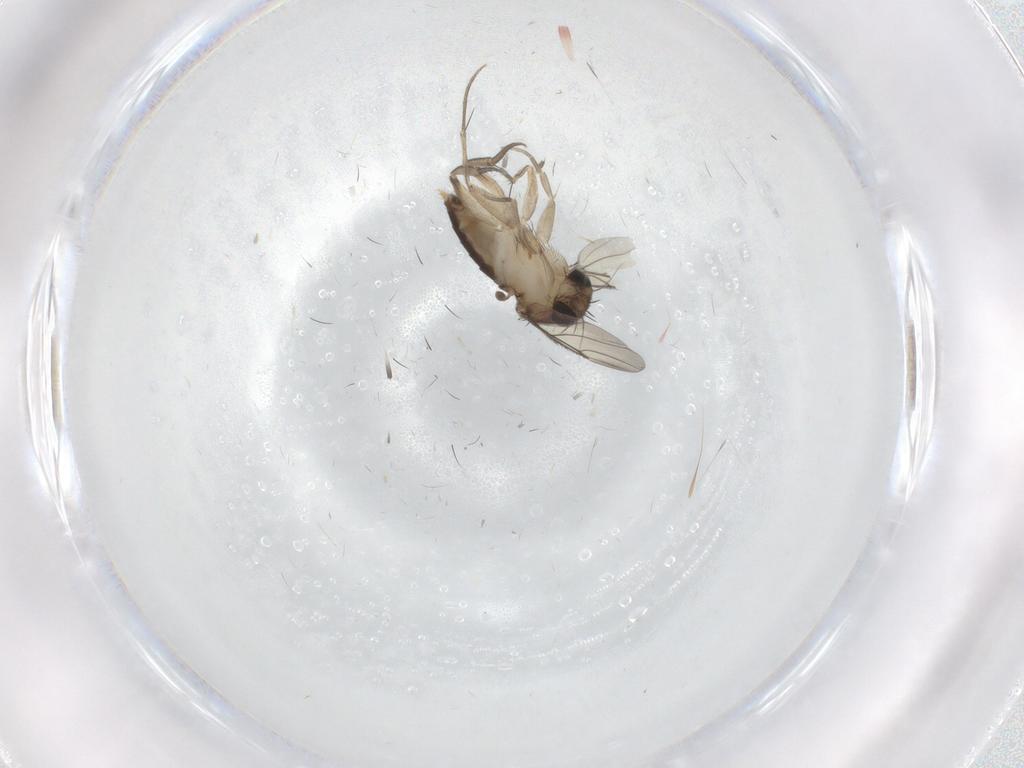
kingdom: Animalia
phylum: Arthropoda
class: Insecta
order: Diptera
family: Phoridae
